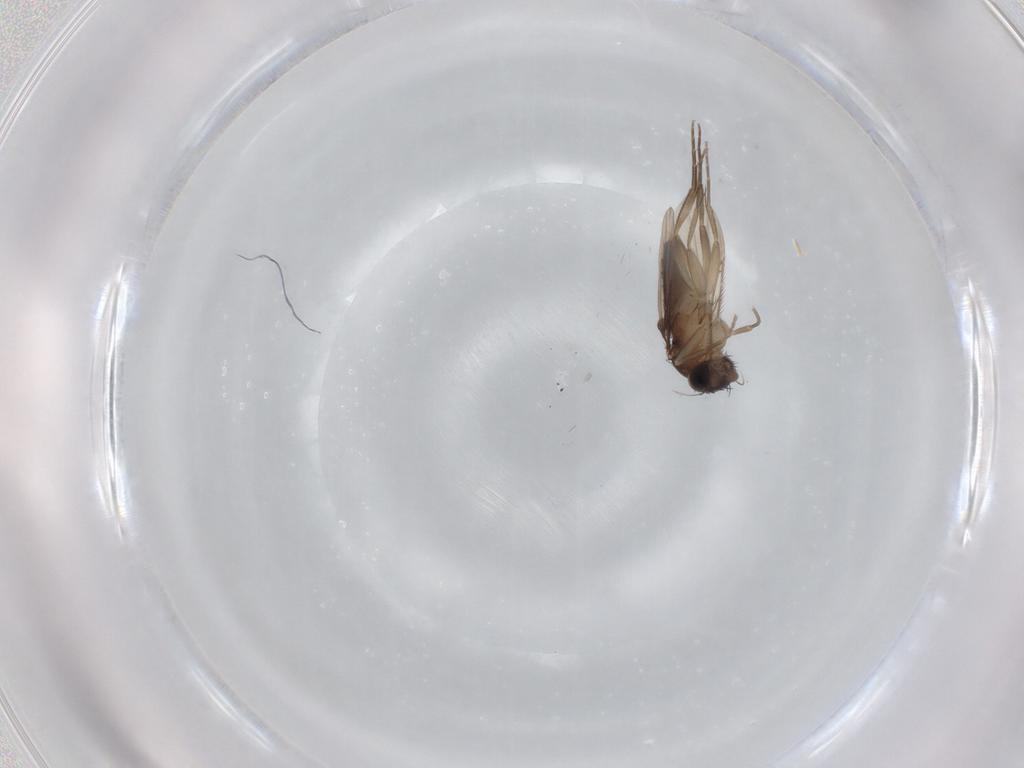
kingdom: Animalia
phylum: Arthropoda
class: Insecta
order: Diptera
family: Phoridae
